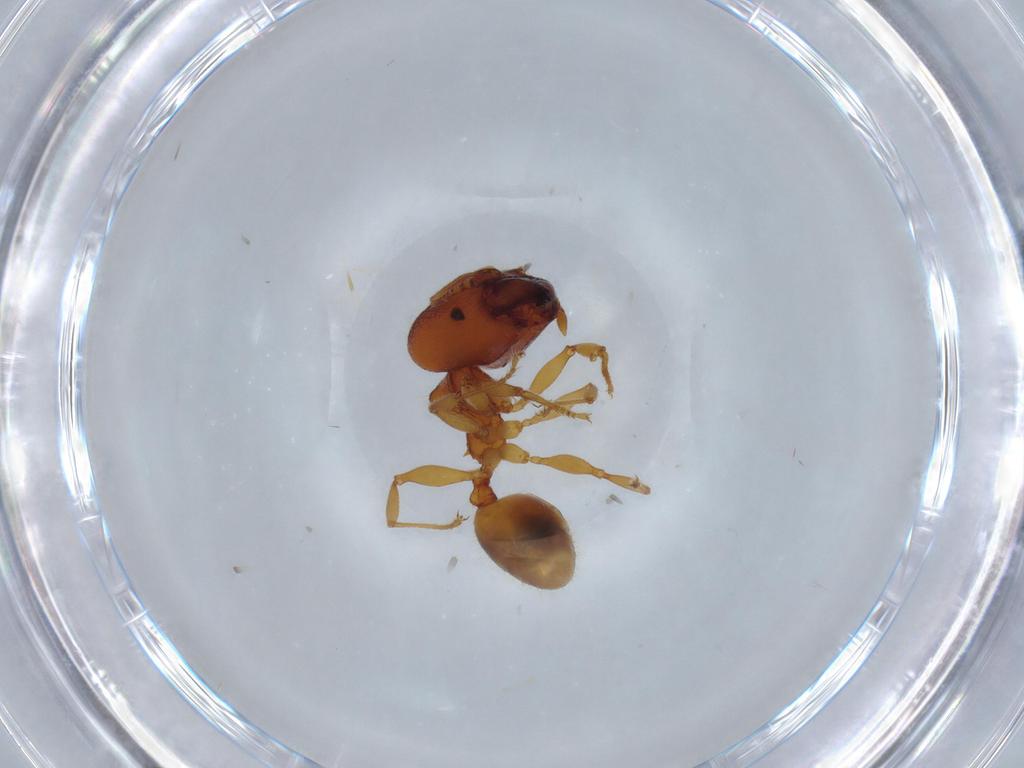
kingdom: Animalia
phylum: Arthropoda
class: Insecta
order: Hymenoptera
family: Formicidae
